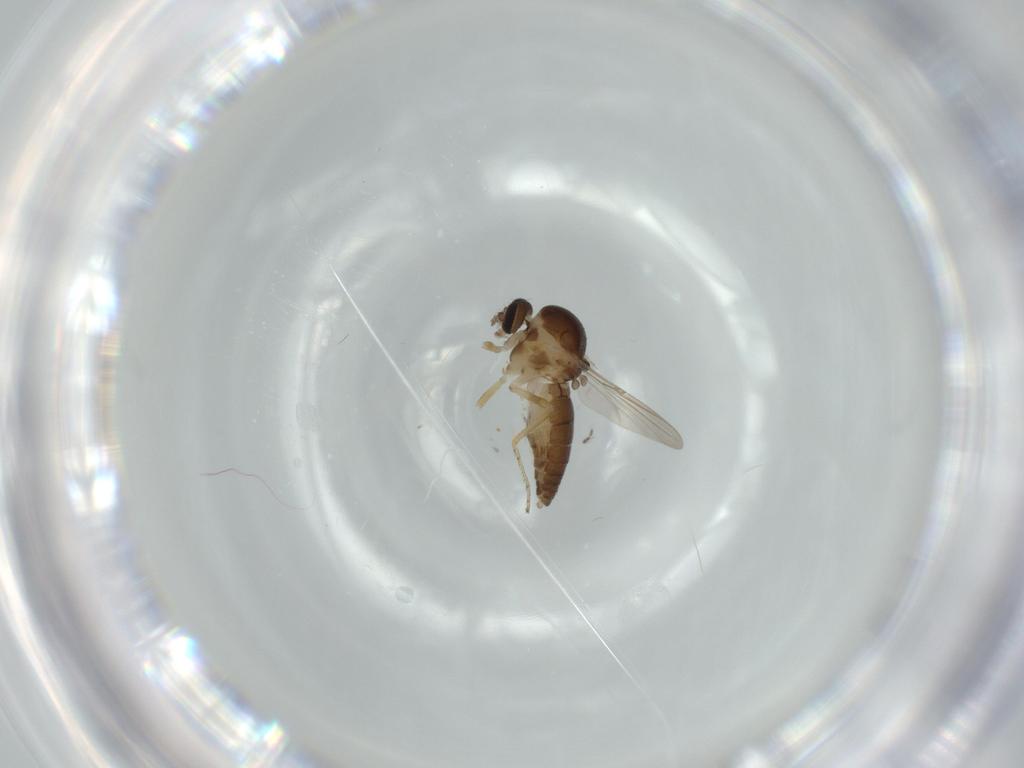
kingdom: Animalia
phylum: Arthropoda
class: Insecta
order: Diptera
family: Ceratopogonidae
